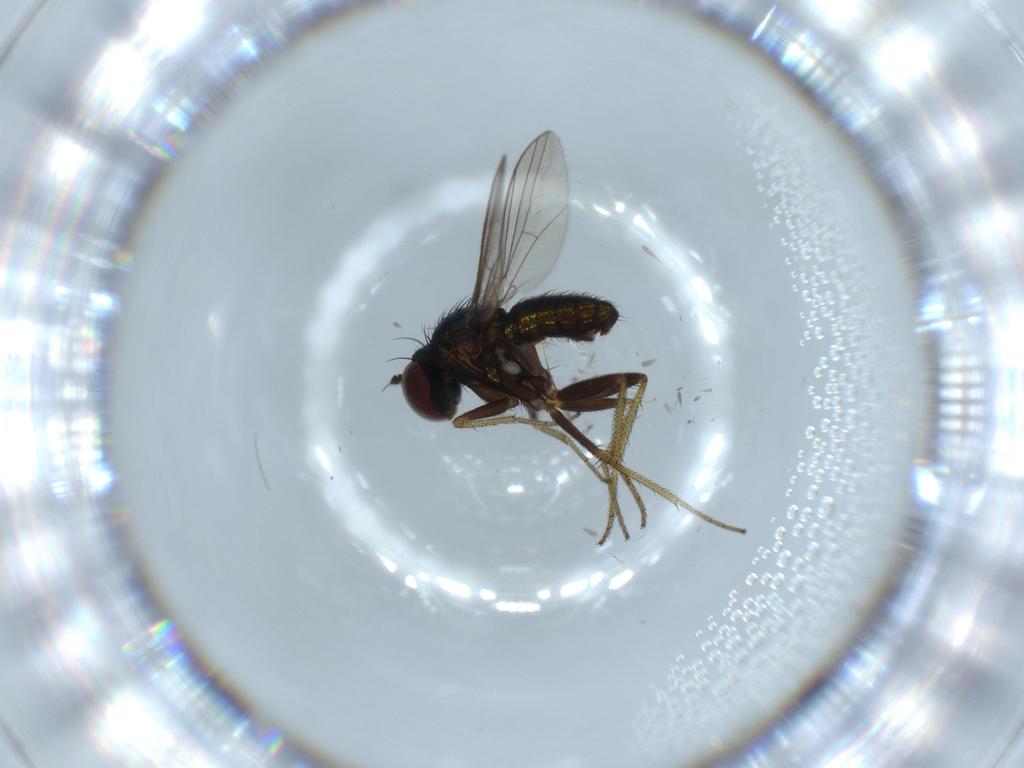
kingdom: Animalia
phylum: Arthropoda
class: Insecta
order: Diptera
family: Dolichopodidae
